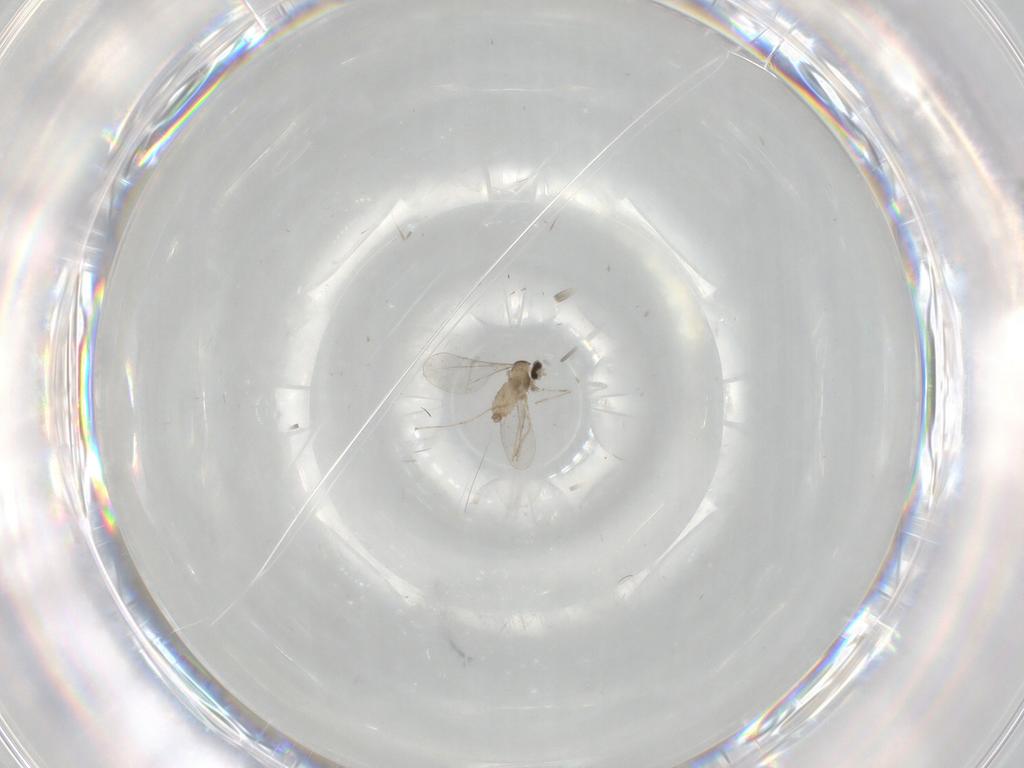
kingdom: Animalia
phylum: Arthropoda
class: Insecta
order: Diptera
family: Cecidomyiidae
